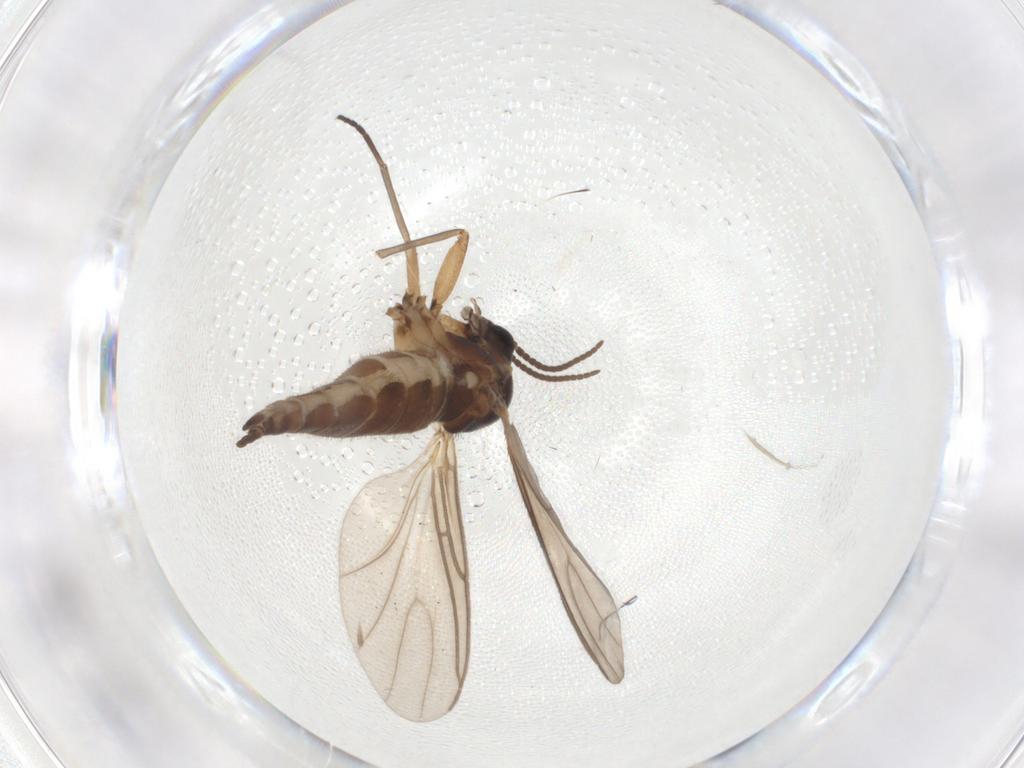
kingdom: Animalia
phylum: Arthropoda
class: Insecta
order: Diptera
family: Sciaridae
